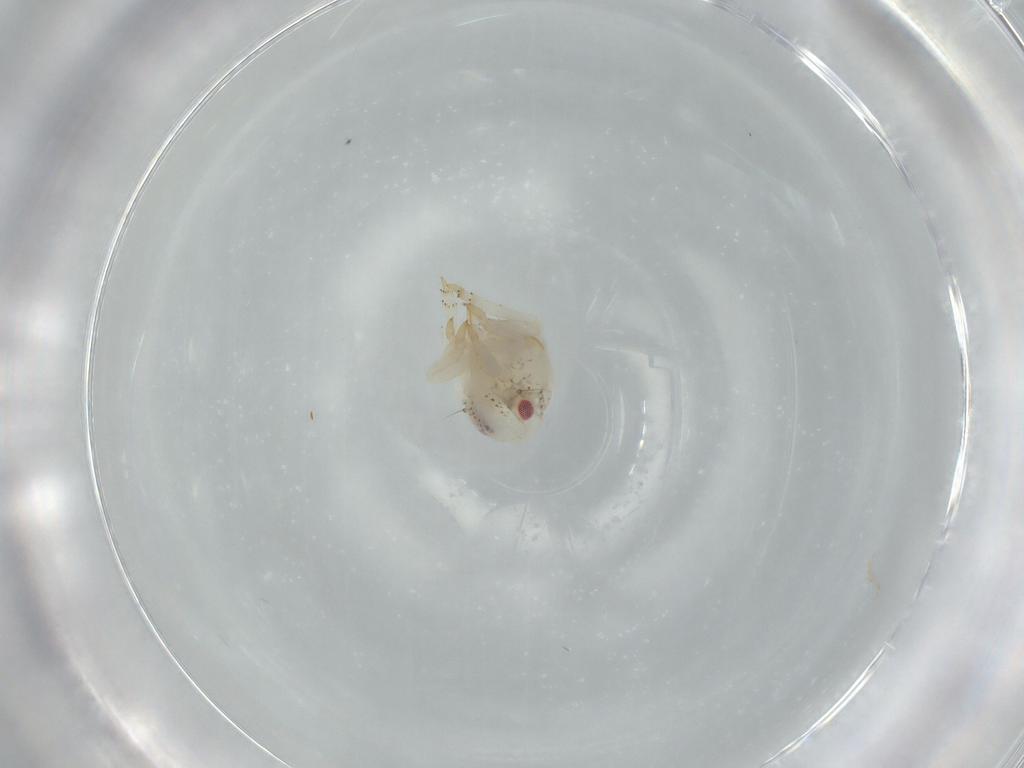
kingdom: Animalia
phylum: Arthropoda
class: Insecta
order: Hemiptera
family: Acanaloniidae
